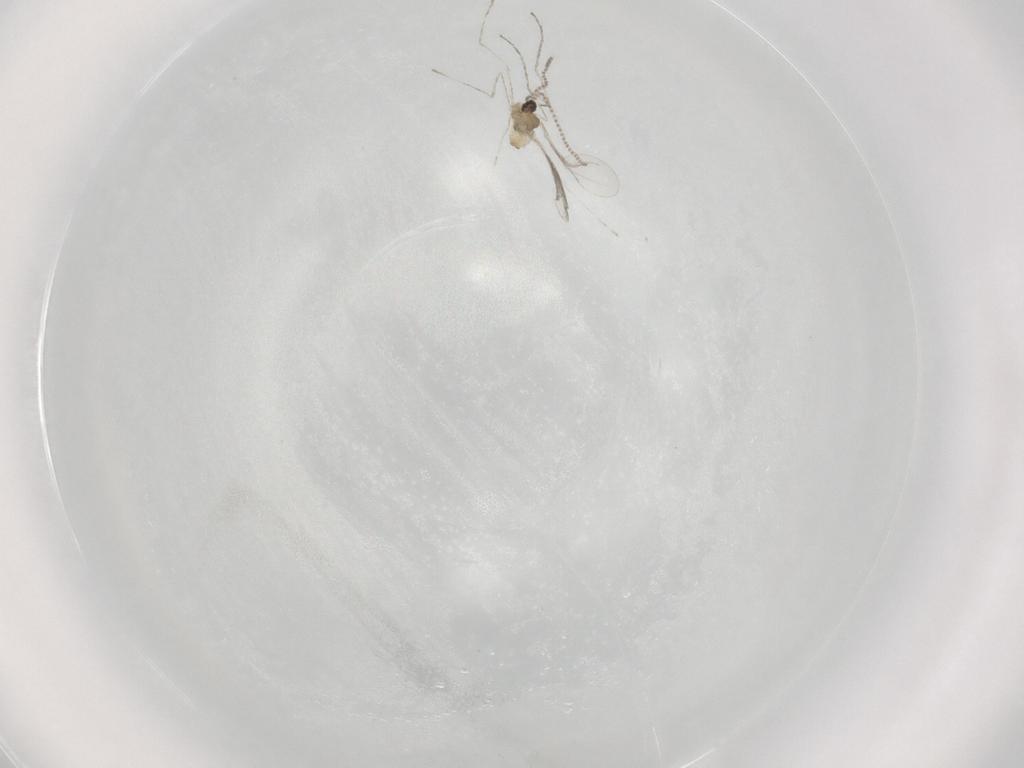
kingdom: Animalia
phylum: Arthropoda
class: Insecta
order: Diptera
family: Cecidomyiidae
